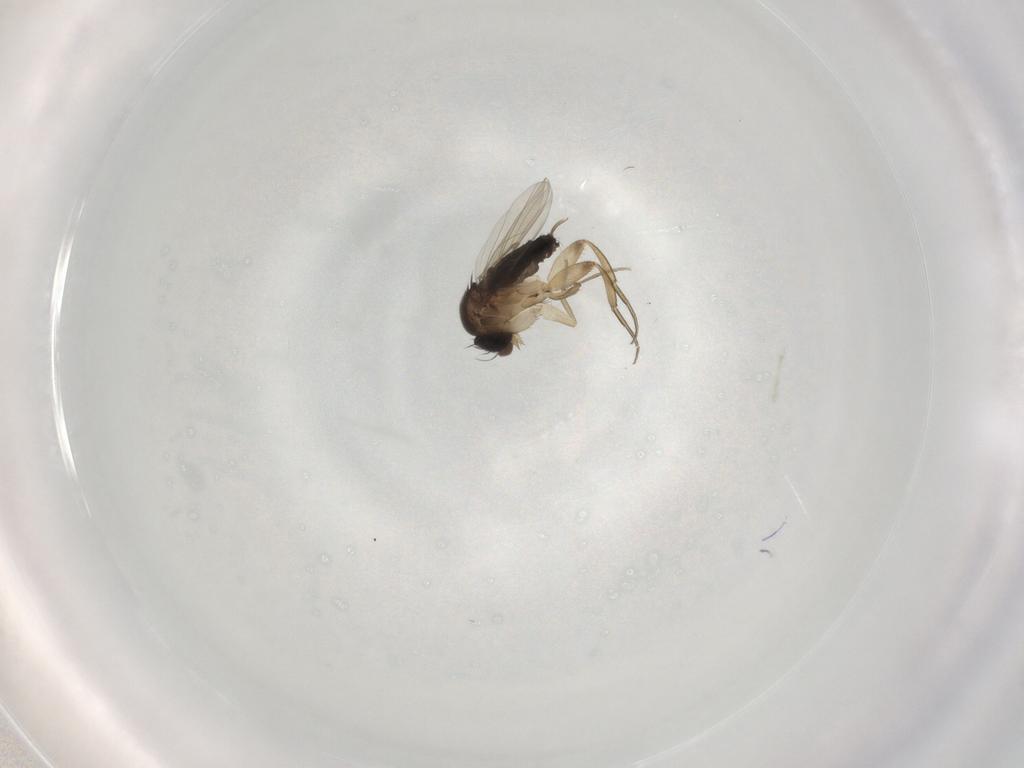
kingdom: Animalia
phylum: Arthropoda
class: Insecta
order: Diptera
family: Phoridae
